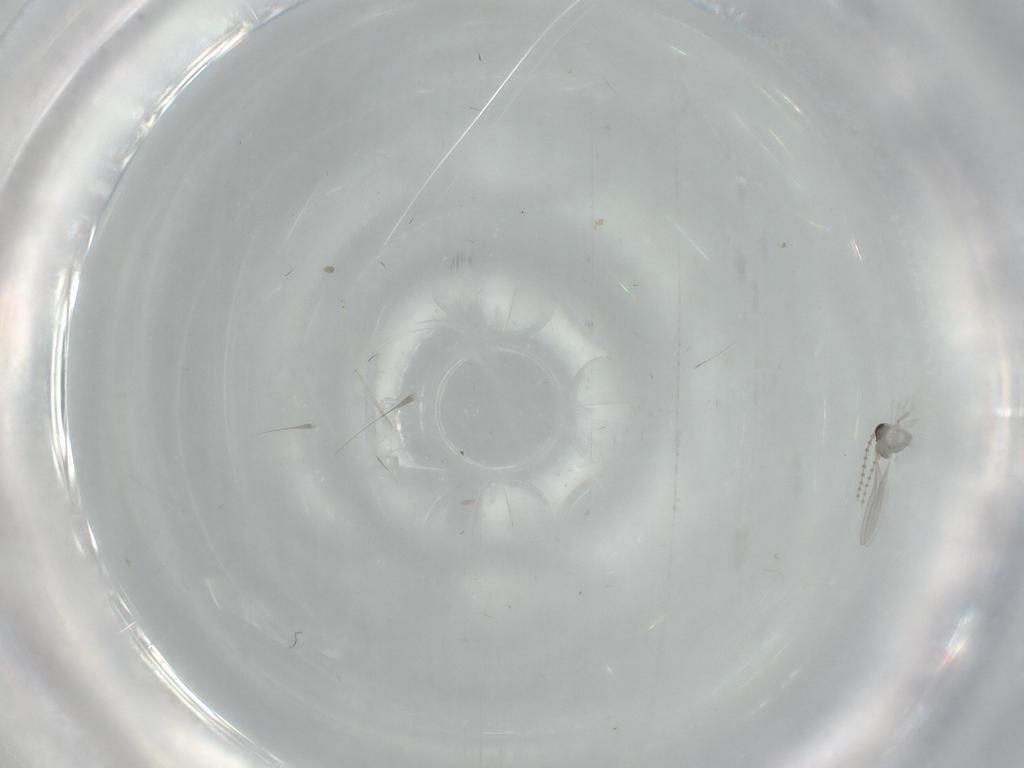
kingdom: Animalia
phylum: Arthropoda
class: Insecta
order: Diptera
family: Cecidomyiidae
